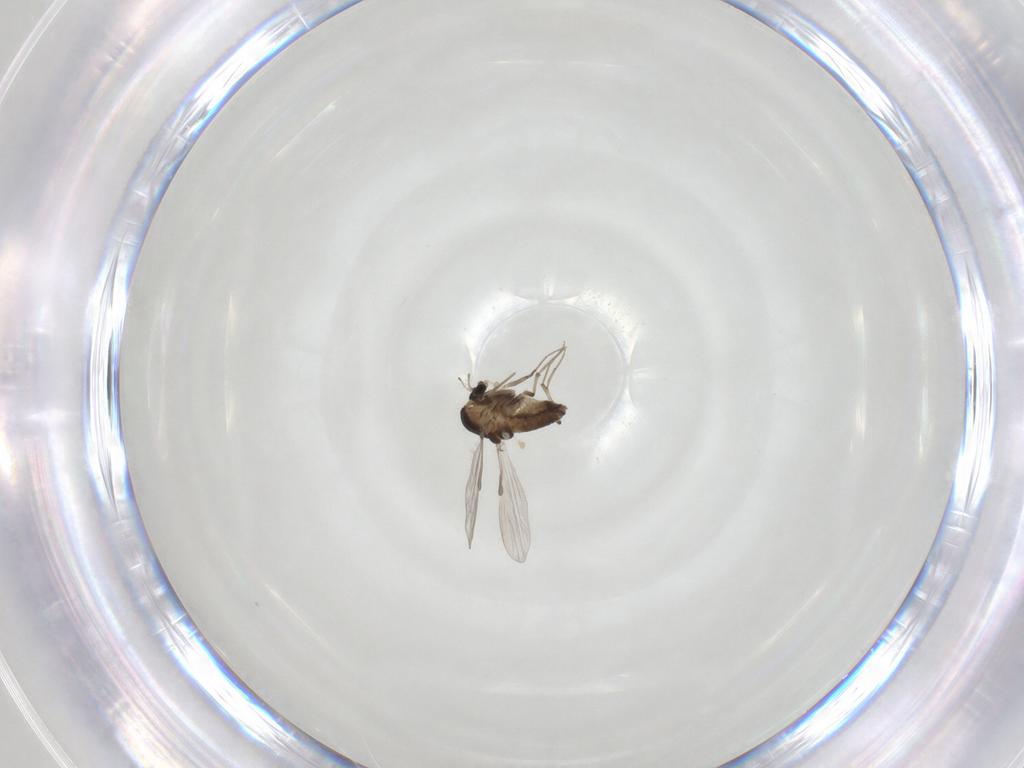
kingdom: Animalia
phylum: Arthropoda
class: Insecta
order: Diptera
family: Chironomidae
